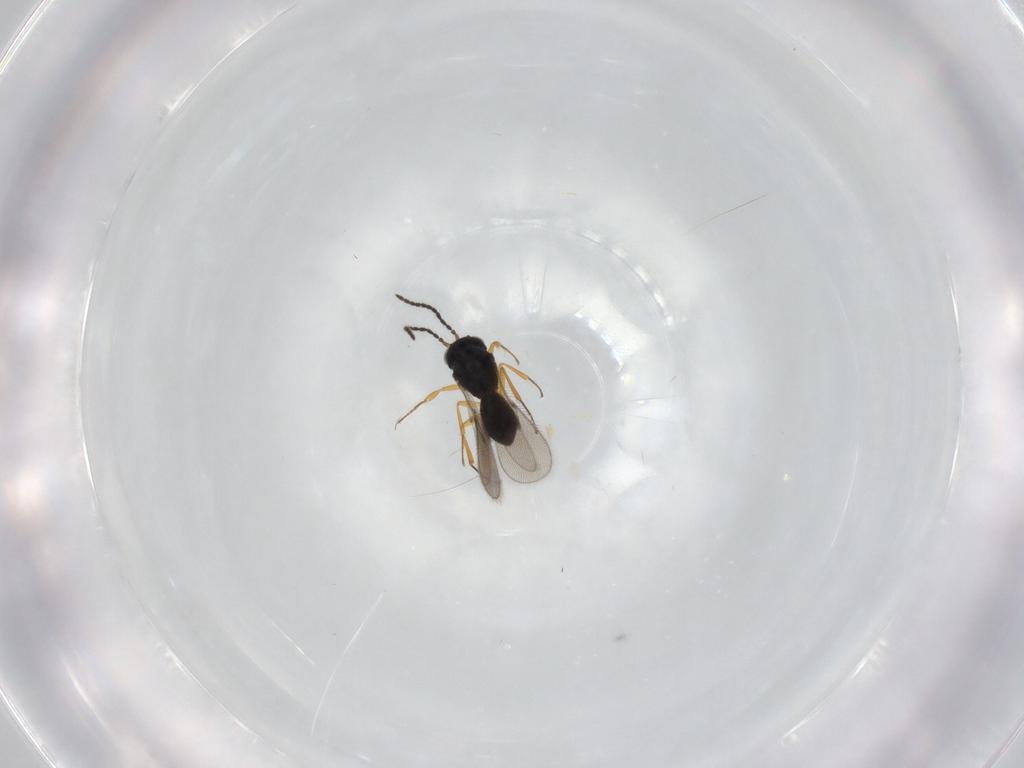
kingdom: Animalia
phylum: Arthropoda
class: Insecta
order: Hymenoptera
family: Scelionidae
